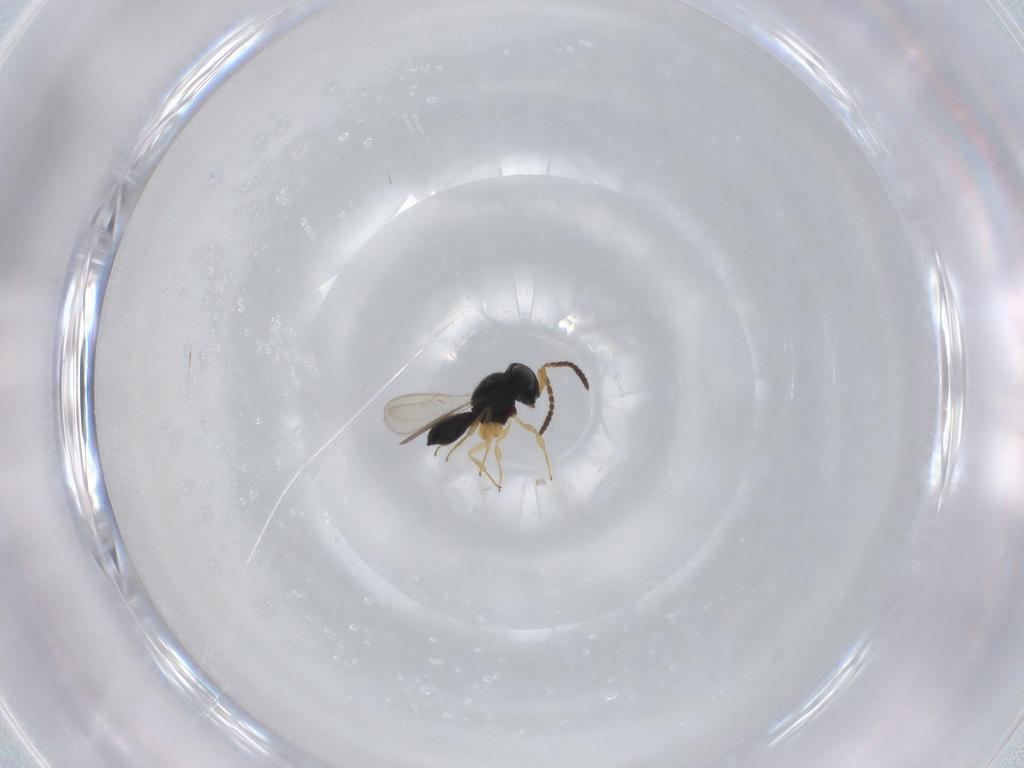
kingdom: Animalia
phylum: Arthropoda
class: Insecta
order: Hymenoptera
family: Scelionidae
